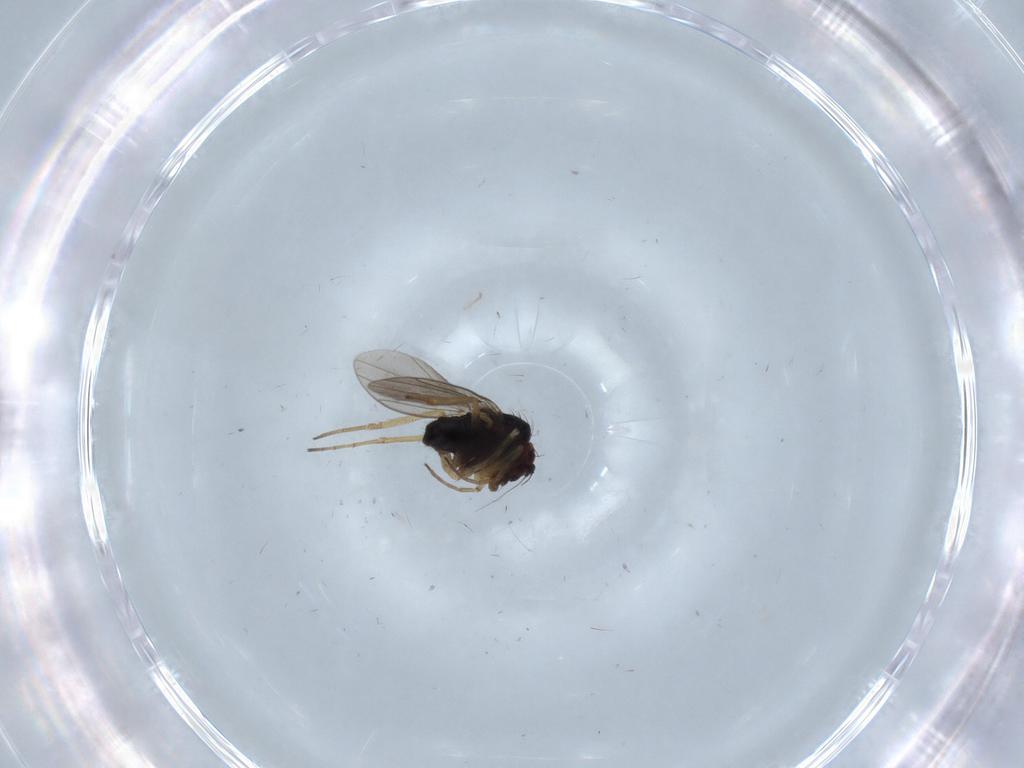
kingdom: Animalia
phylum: Arthropoda
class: Insecta
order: Diptera
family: Dolichopodidae
